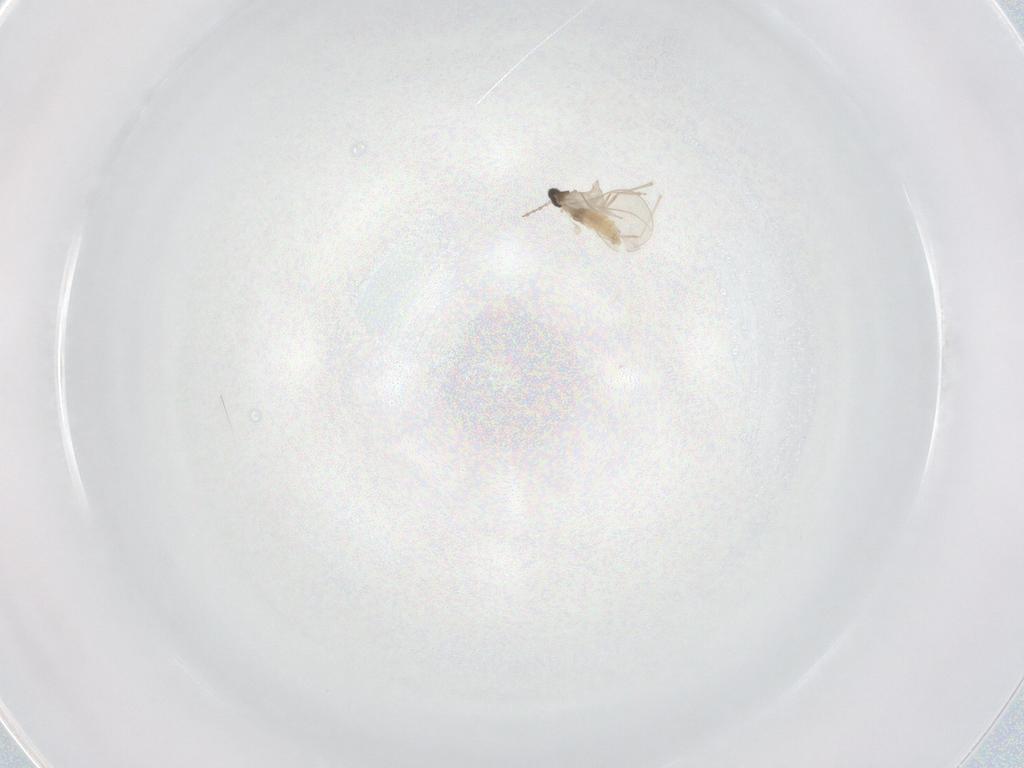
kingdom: Animalia
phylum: Arthropoda
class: Insecta
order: Diptera
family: Cecidomyiidae
